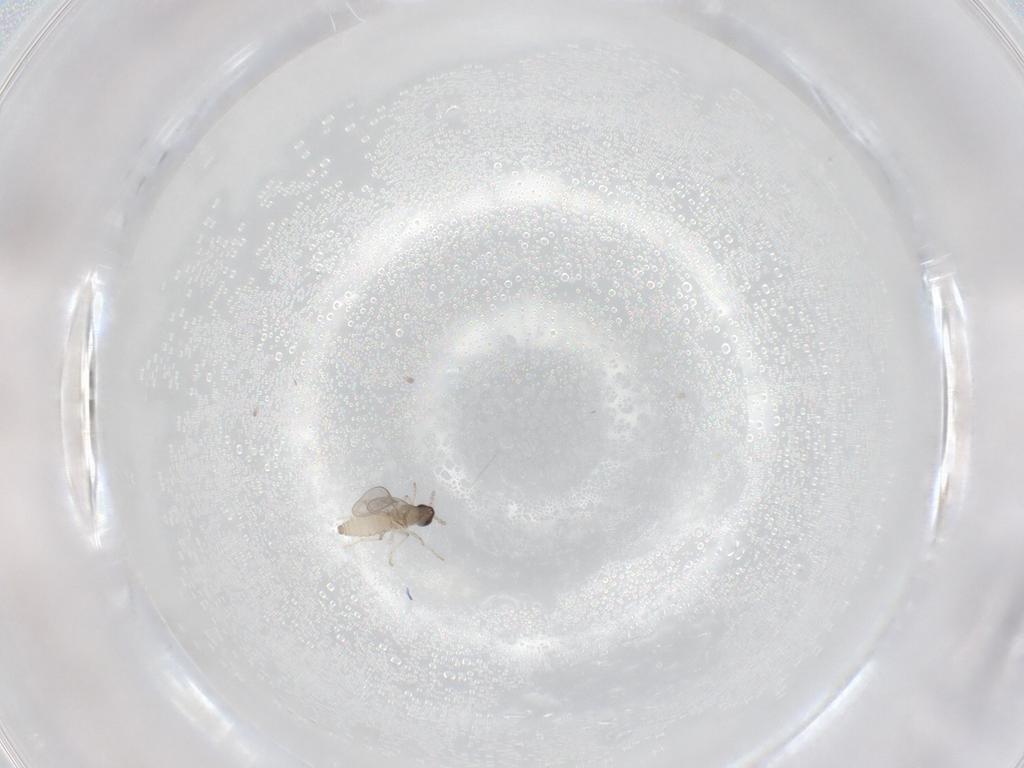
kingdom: Animalia
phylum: Arthropoda
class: Insecta
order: Diptera
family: Cecidomyiidae
